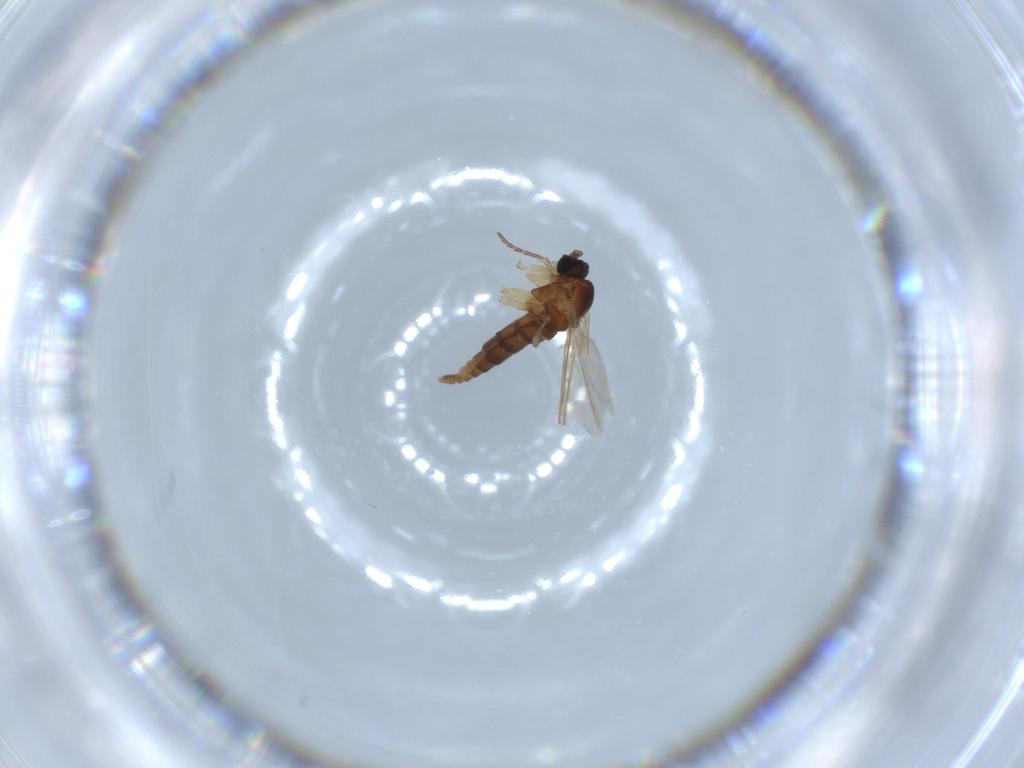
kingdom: Animalia
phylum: Arthropoda
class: Insecta
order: Diptera
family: Sciaridae
